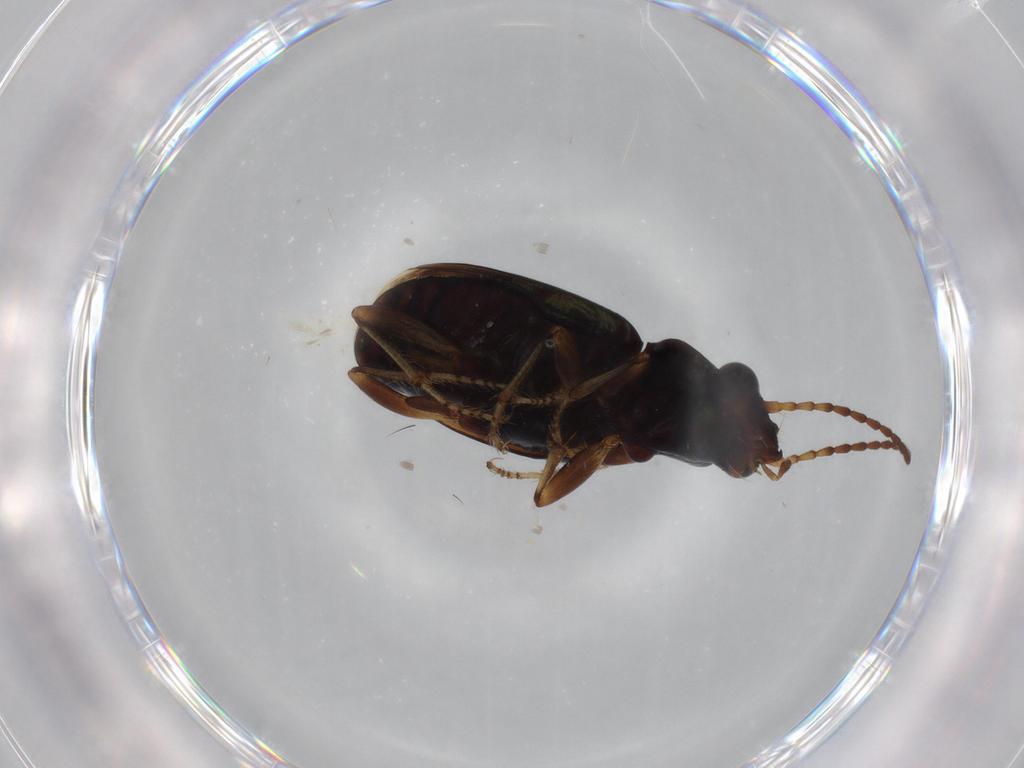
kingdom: Animalia
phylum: Arthropoda
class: Insecta
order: Coleoptera
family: Carabidae
